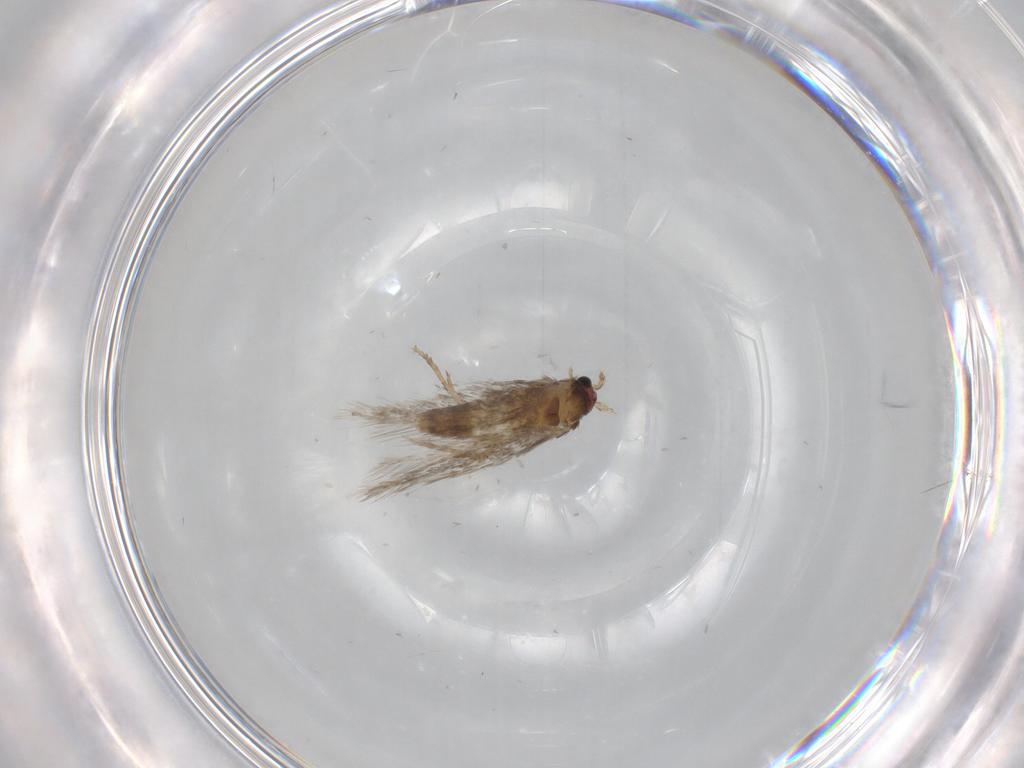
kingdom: Animalia
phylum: Arthropoda
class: Insecta
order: Lepidoptera
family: Nepticulidae
